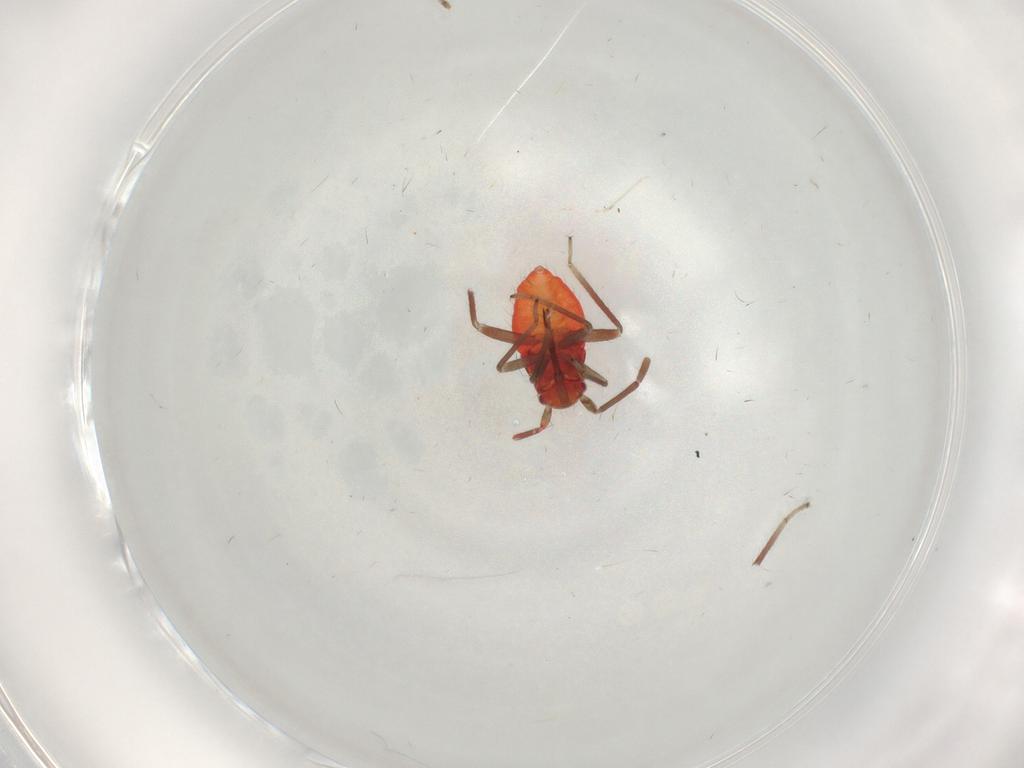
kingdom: Animalia
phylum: Arthropoda
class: Insecta
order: Hemiptera
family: Miridae
